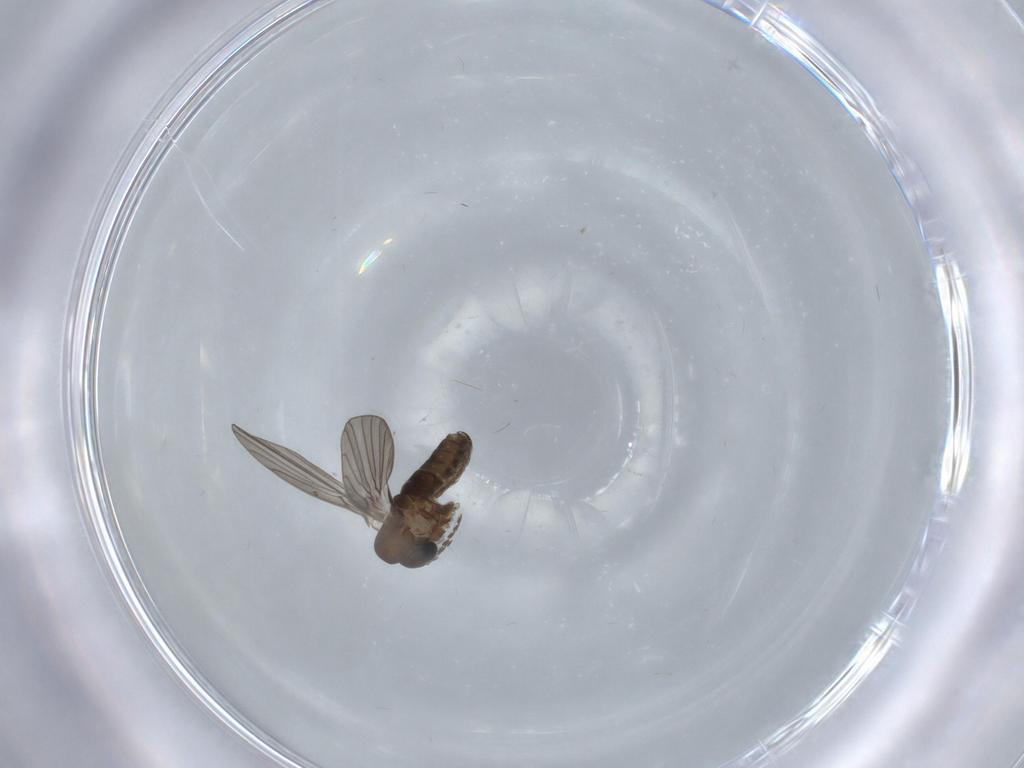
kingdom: Animalia
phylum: Arthropoda
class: Insecta
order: Diptera
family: Psychodidae
